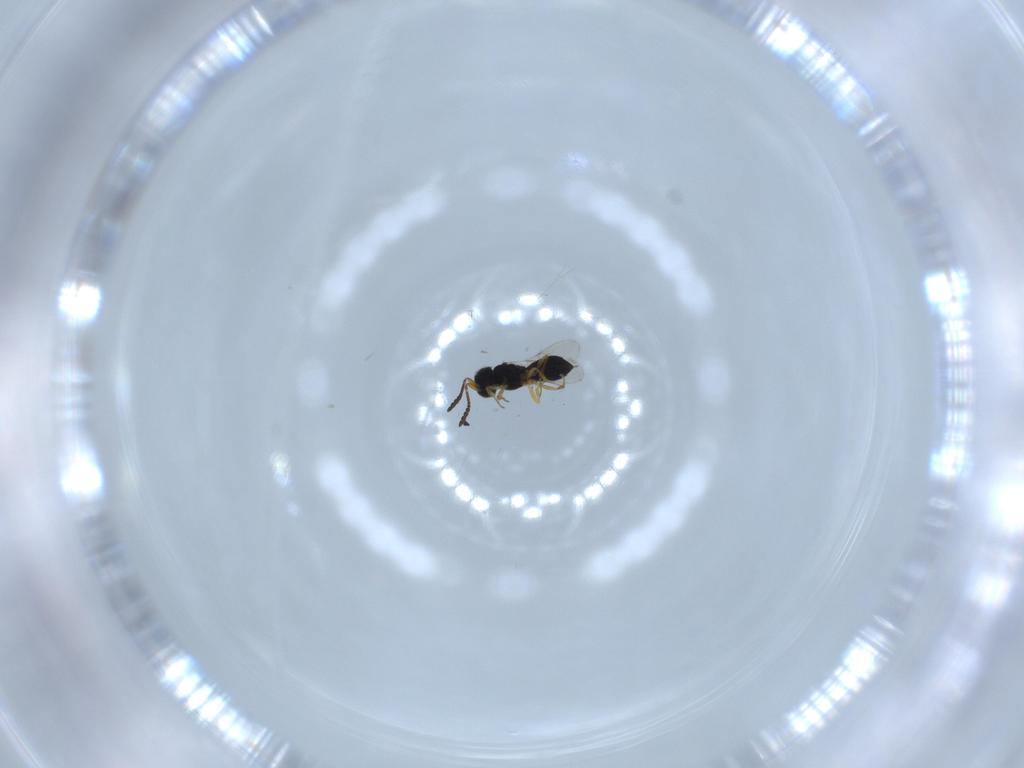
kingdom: Animalia
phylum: Arthropoda
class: Insecta
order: Hymenoptera
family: Scelionidae
